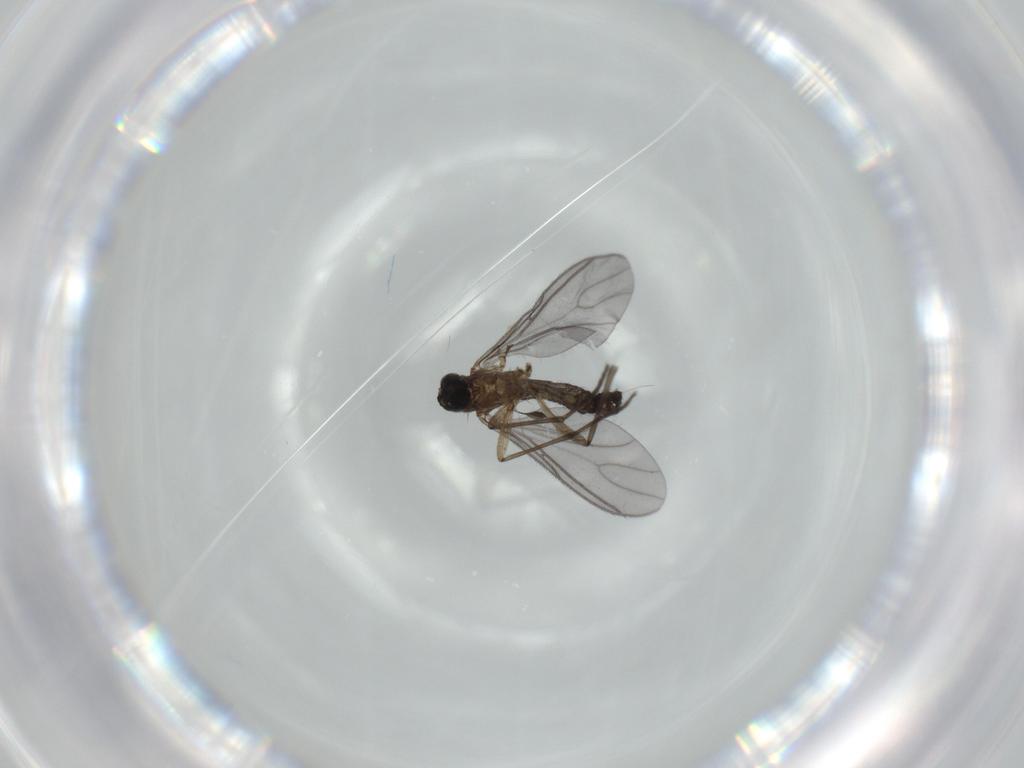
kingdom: Animalia
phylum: Arthropoda
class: Insecta
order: Diptera
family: Sciaridae
